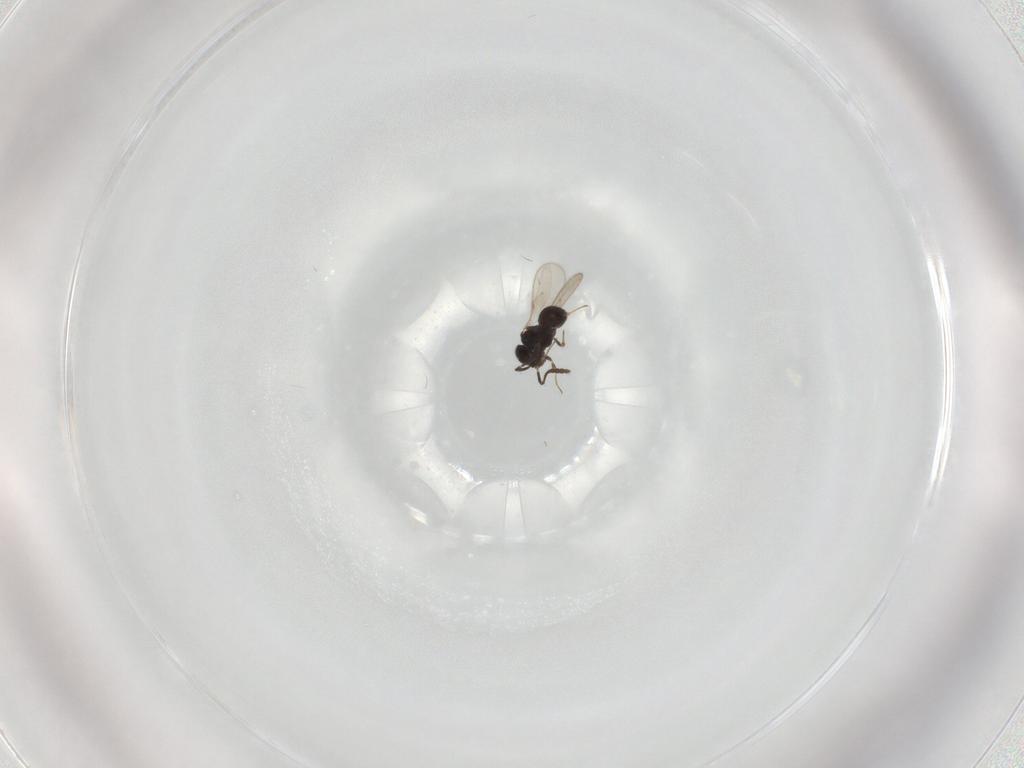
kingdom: Animalia
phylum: Arthropoda
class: Insecta
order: Hymenoptera
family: Scelionidae
